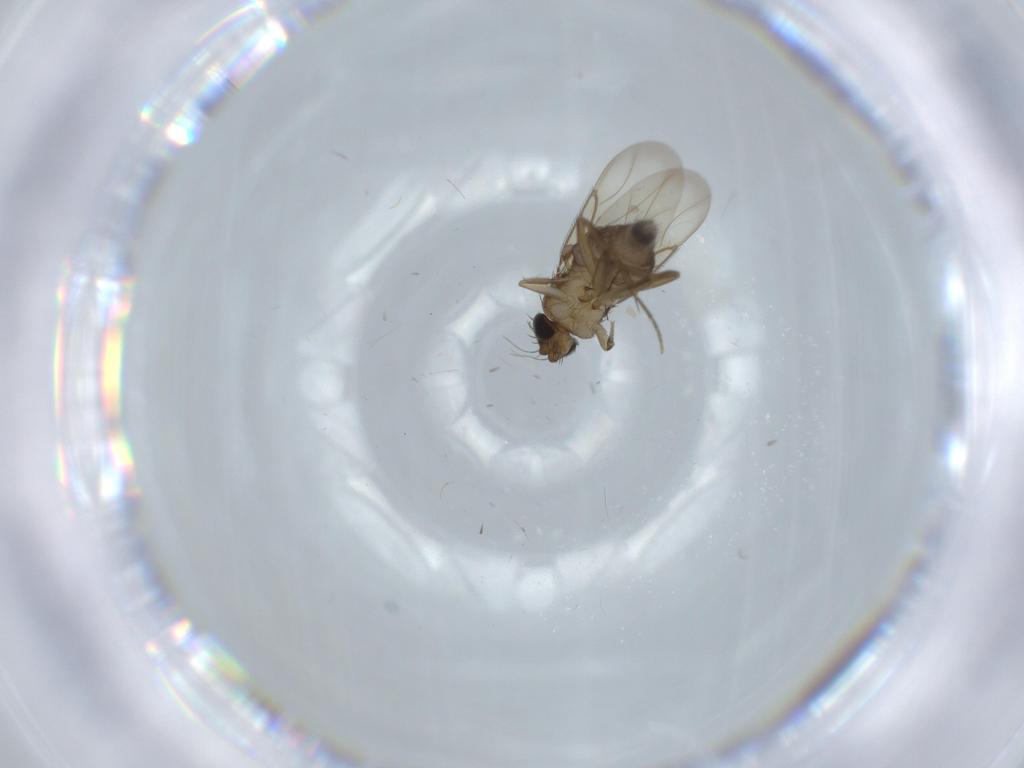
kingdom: Animalia
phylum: Arthropoda
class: Insecta
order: Diptera
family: Phoridae
